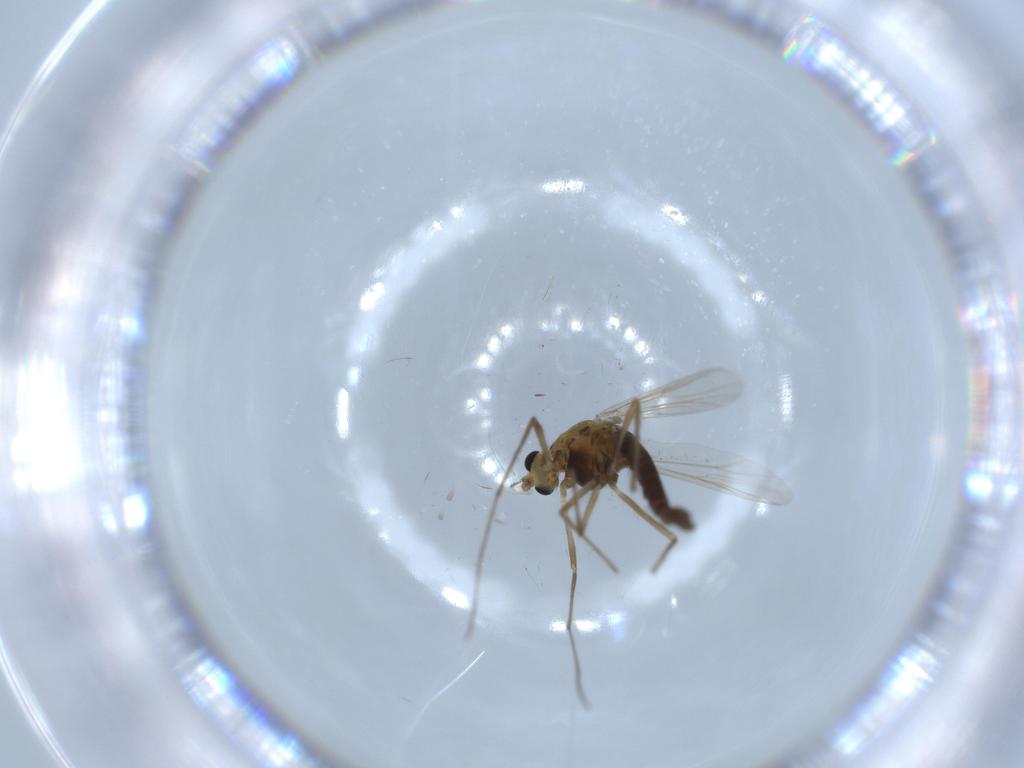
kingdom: Animalia
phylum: Arthropoda
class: Insecta
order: Diptera
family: Chironomidae
